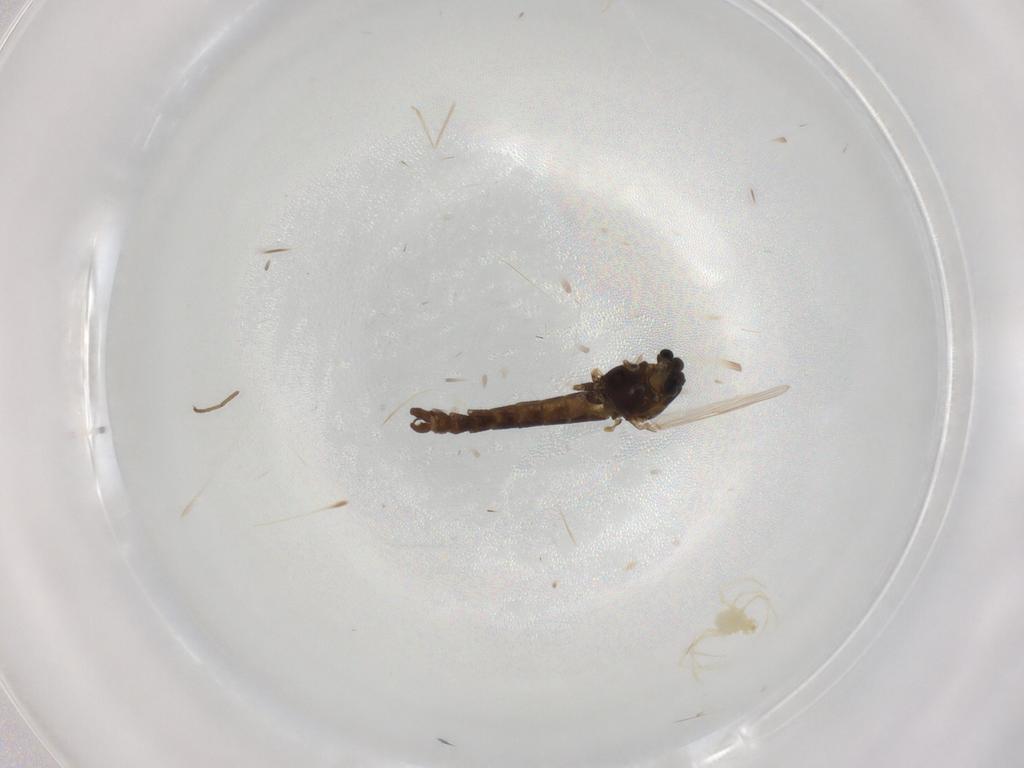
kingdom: Animalia
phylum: Arthropoda
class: Insecta
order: Diptera
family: Chironomidae
